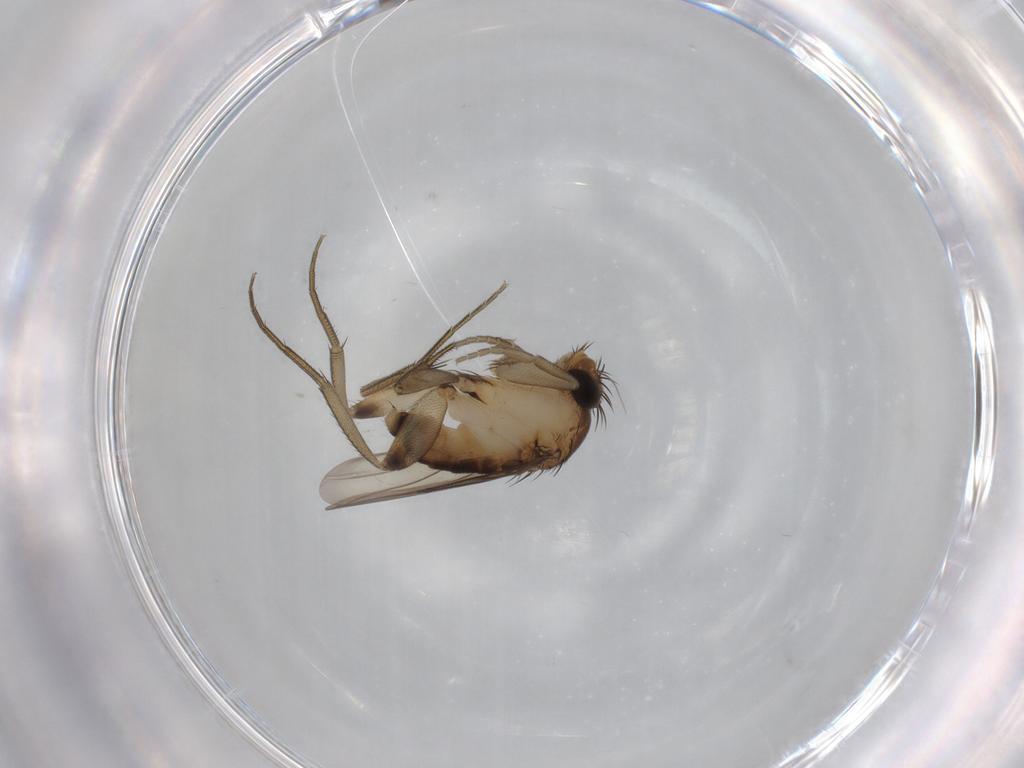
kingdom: Animalia
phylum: Arthropoda
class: Insecta
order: Diptera
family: Phoridae
